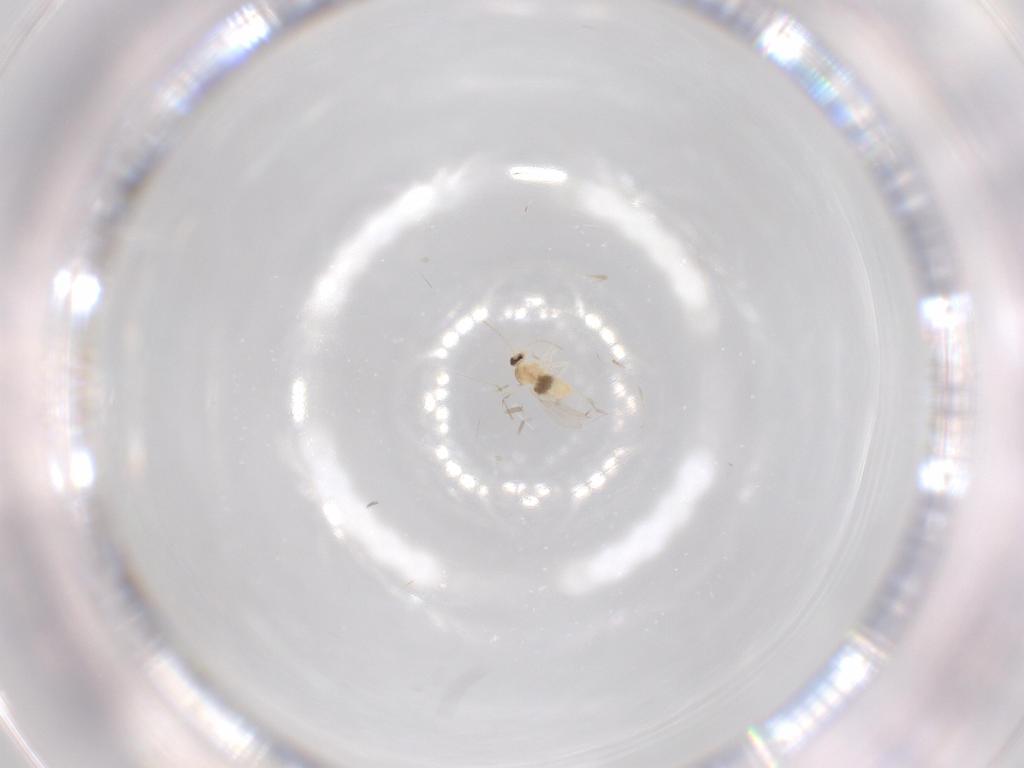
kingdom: Animalia
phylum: Arthropoda
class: Insecta
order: Diptera
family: Cecidomyiidae
